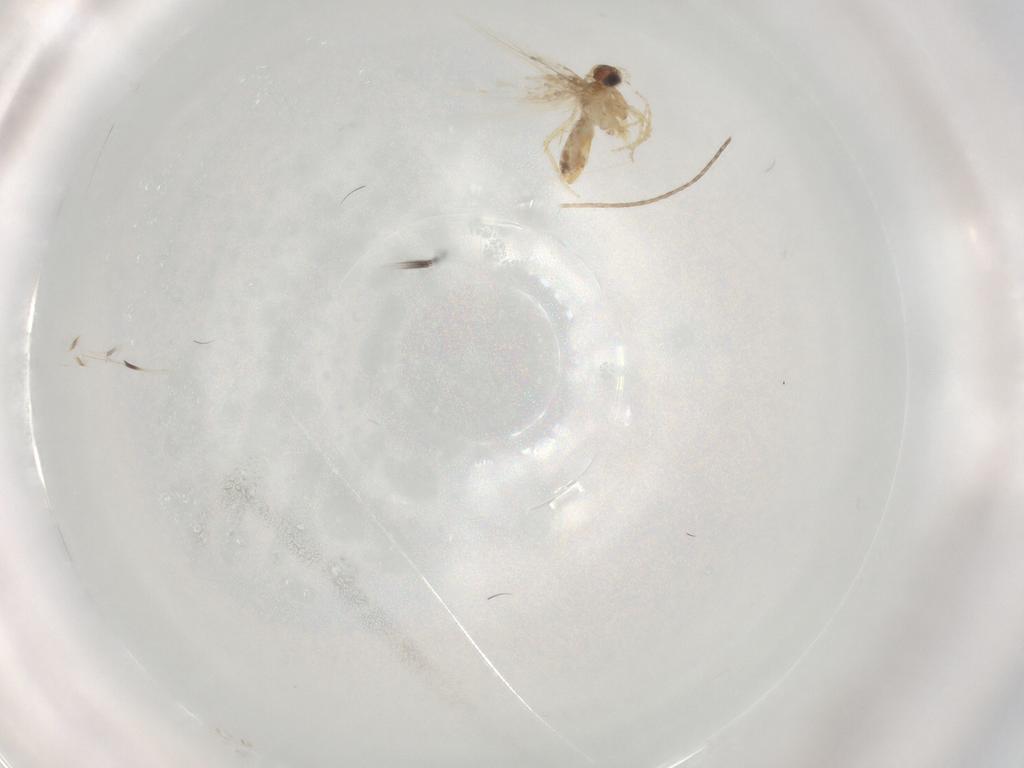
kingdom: Animalia
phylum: Arthropoda
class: Insecta
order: Lepidoptera
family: Gelechiidae
